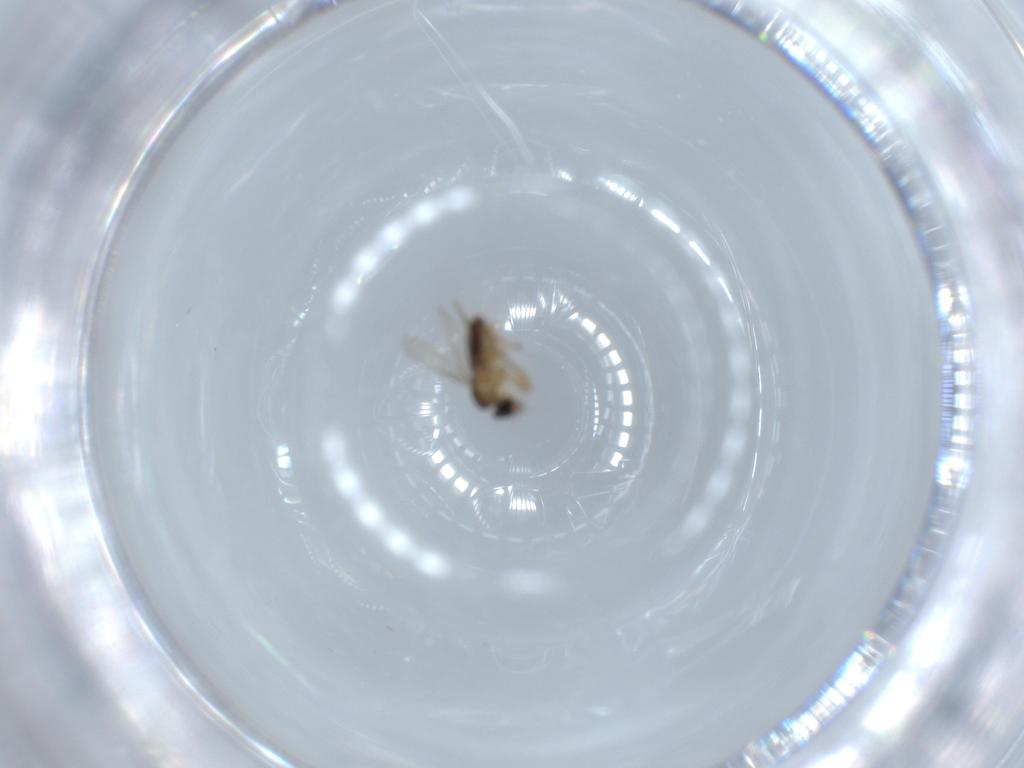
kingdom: Animalia
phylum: Arthropoda
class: Insecta
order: Diptera
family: Phoridae
